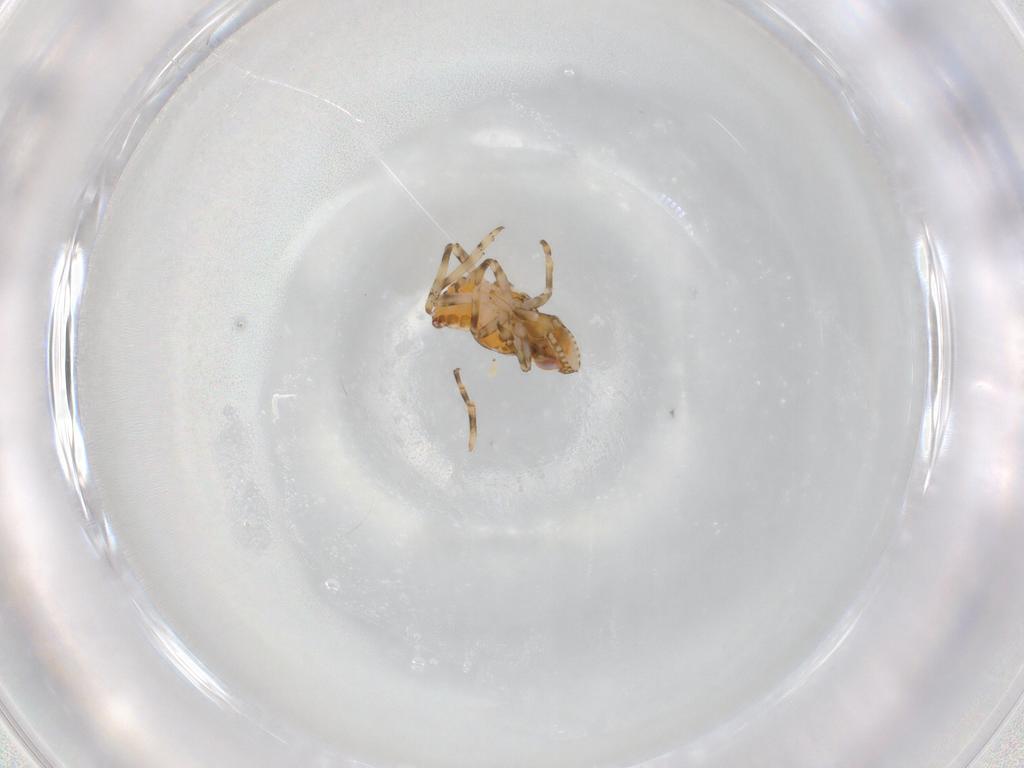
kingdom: Animalia
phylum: Arthropoda
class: Insecta
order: Hemiptera
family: Tropiduchidae
